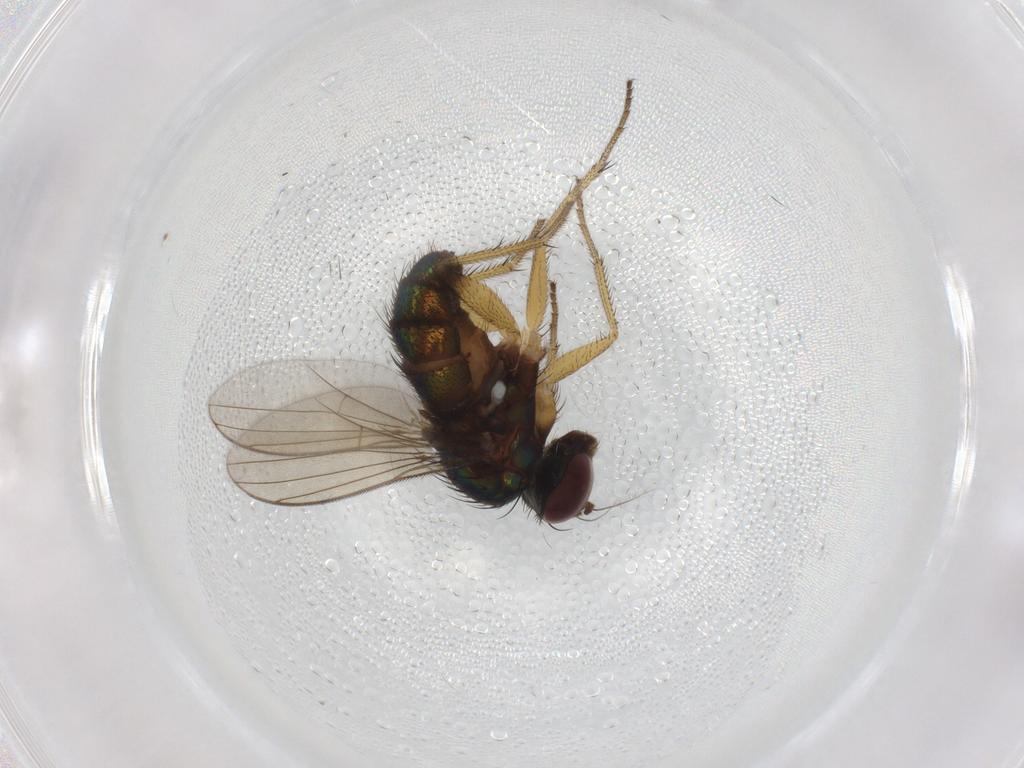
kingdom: Animalia
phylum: Arthropoda
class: Insecta
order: Diptera
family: Dolichopodidae
